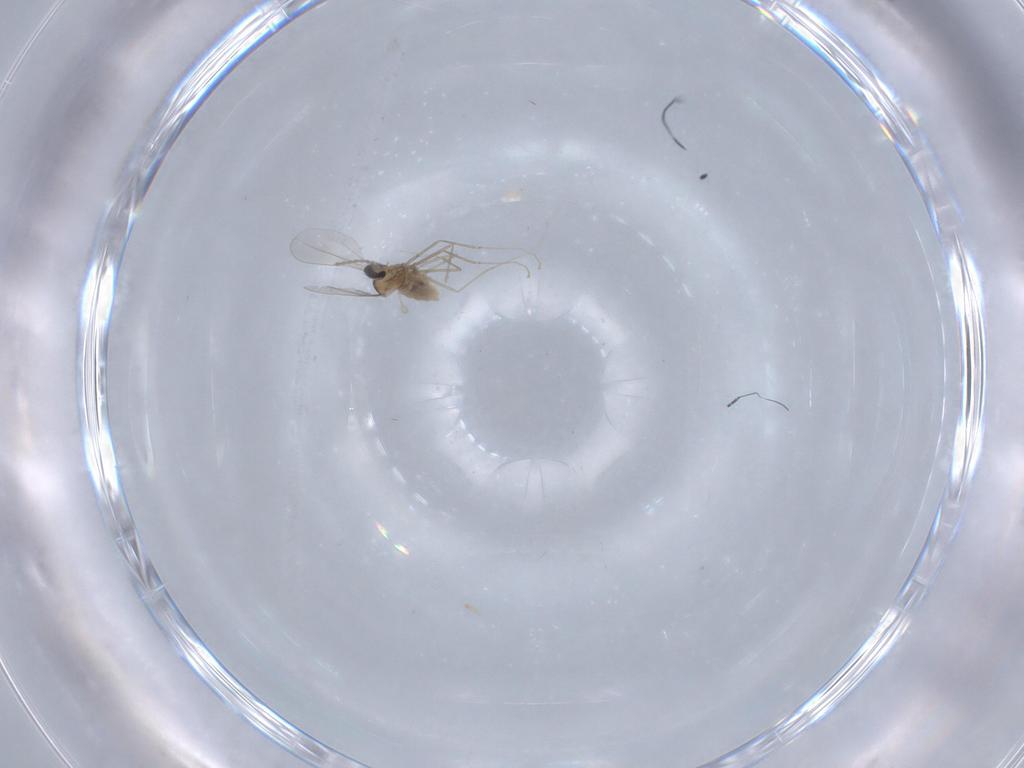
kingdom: Animalia
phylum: Arthropoda
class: Insecta
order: Diptera
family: Cecidomyiidae
